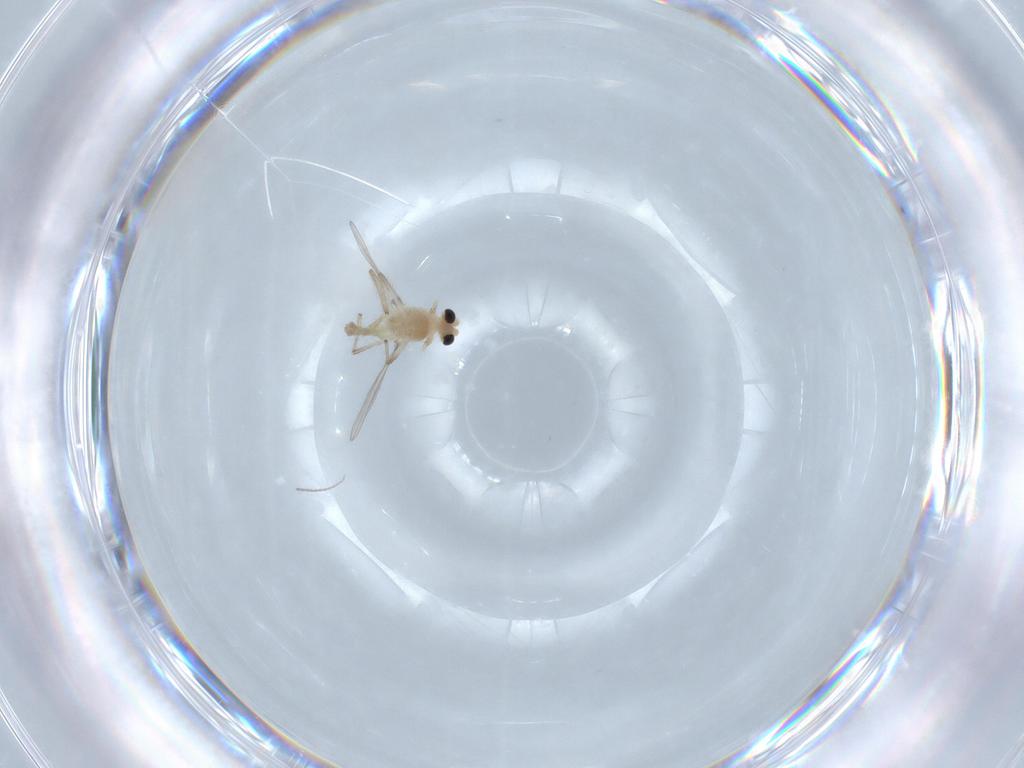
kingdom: Animalia
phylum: Arthropoda
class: Insecta
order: Diptera
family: Chironomidae
